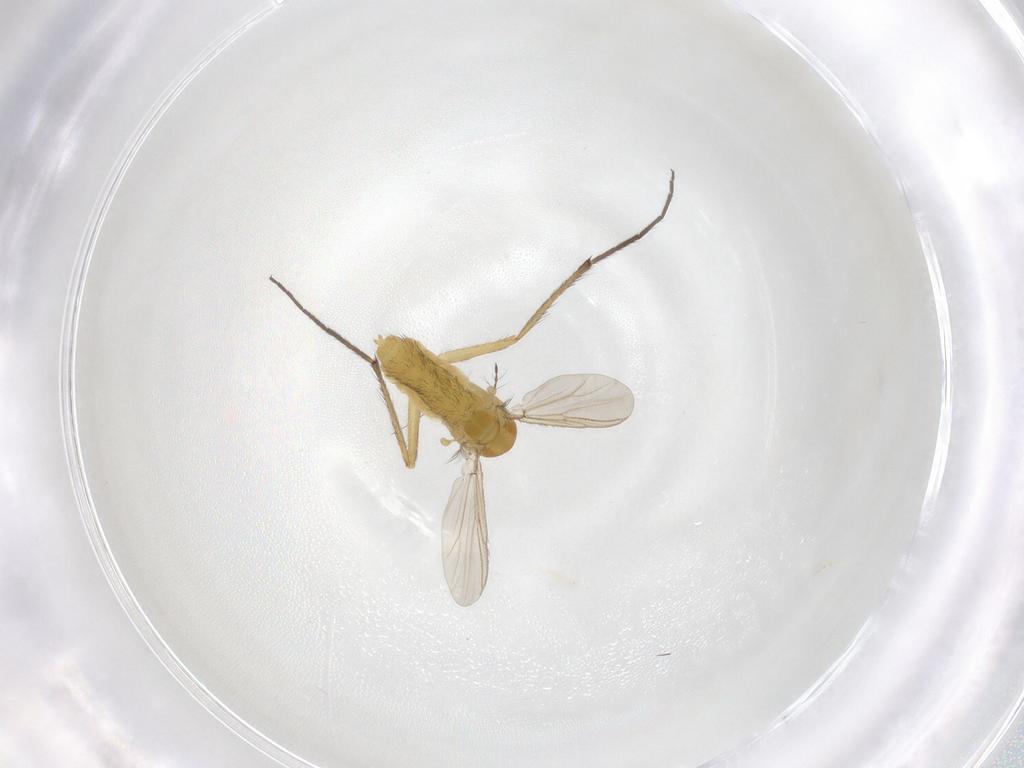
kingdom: Animalia
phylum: Arthropoda
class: Insecta
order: Diptera
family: Chironomidae
